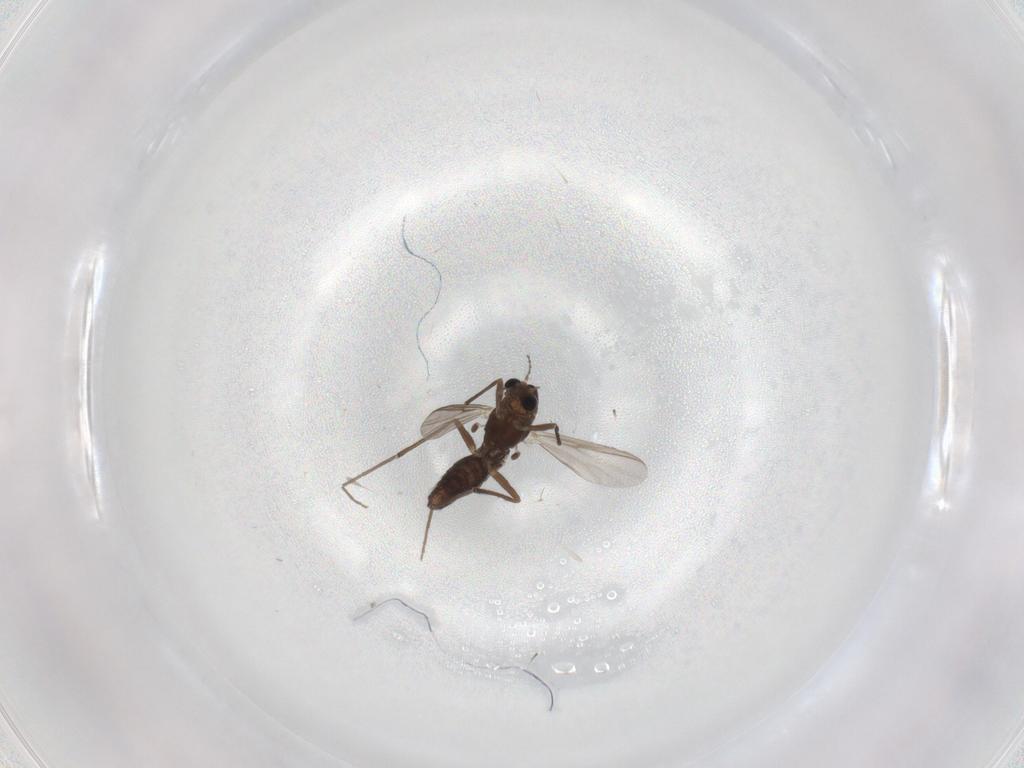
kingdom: Animalia
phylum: Arthropoda
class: Insecta
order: Diptera
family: Chironomidae
